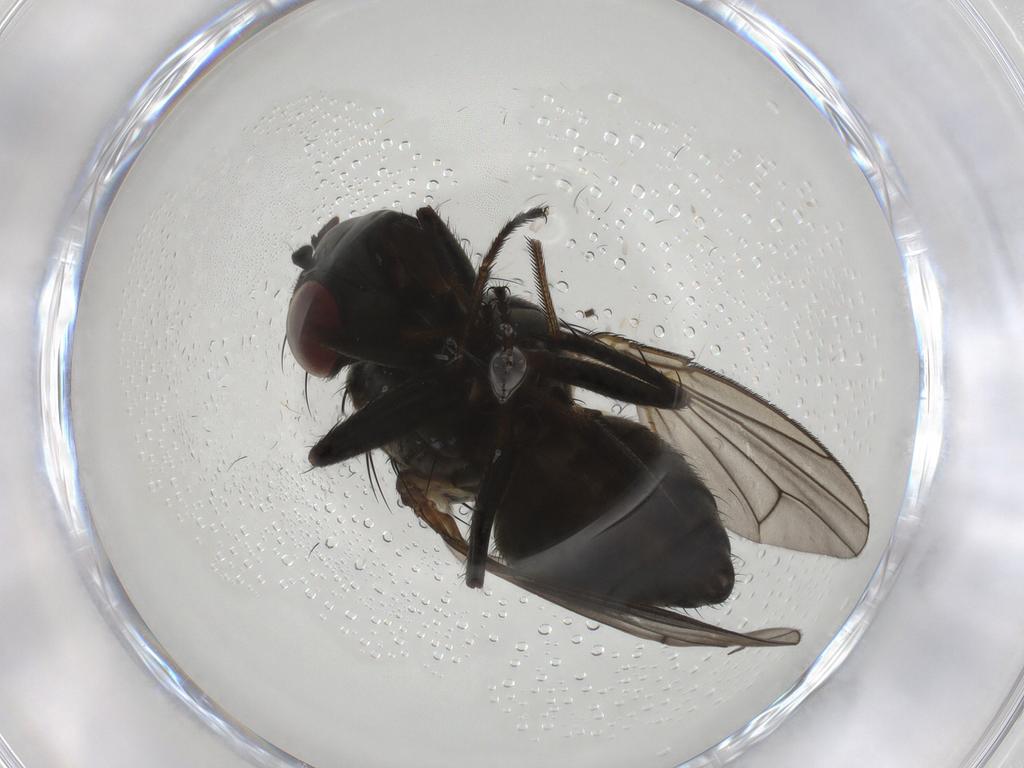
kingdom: Animalia
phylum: Arthropoda
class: Insecta
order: Diptera
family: Ephydridae
